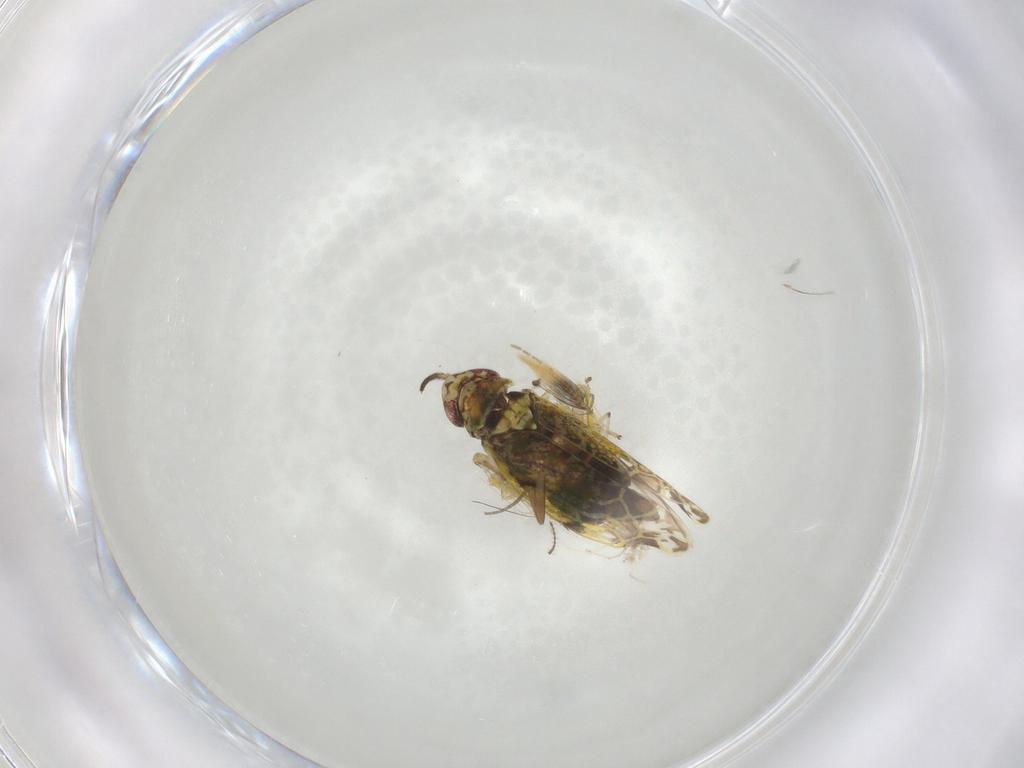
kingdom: Animalia
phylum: Arthropoda
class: Insecta
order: Hemiptera
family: Cicadellidae
